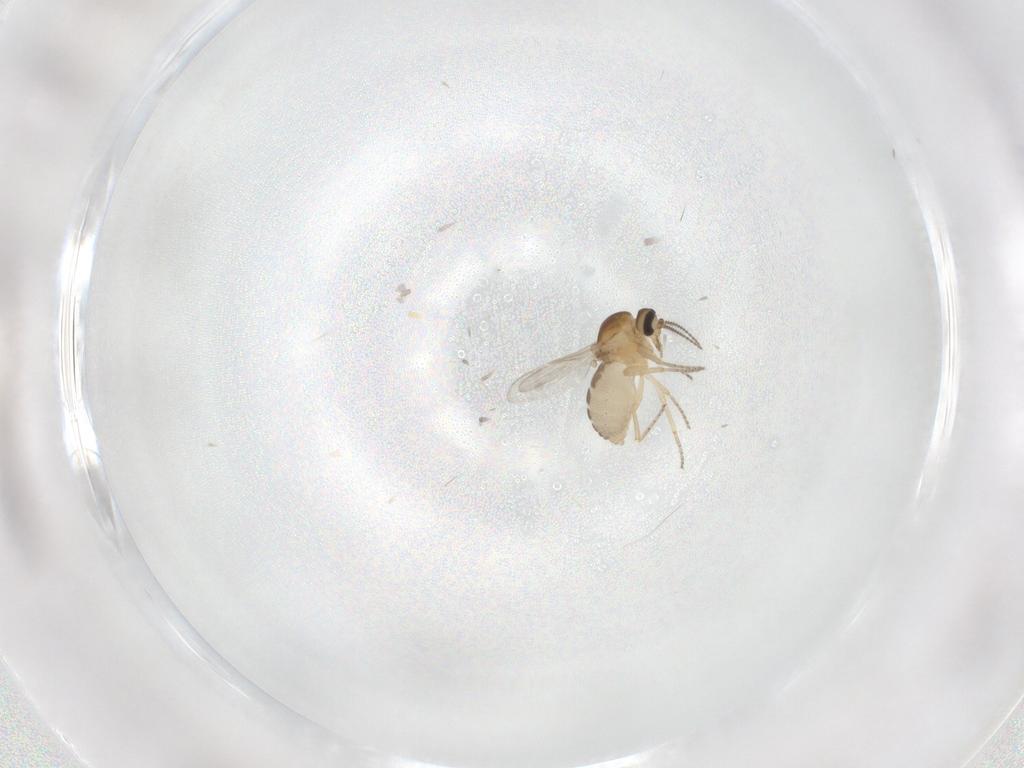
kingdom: Animalia
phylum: Arthropoda
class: Insecta
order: Diptera
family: Ceratopogonidae
